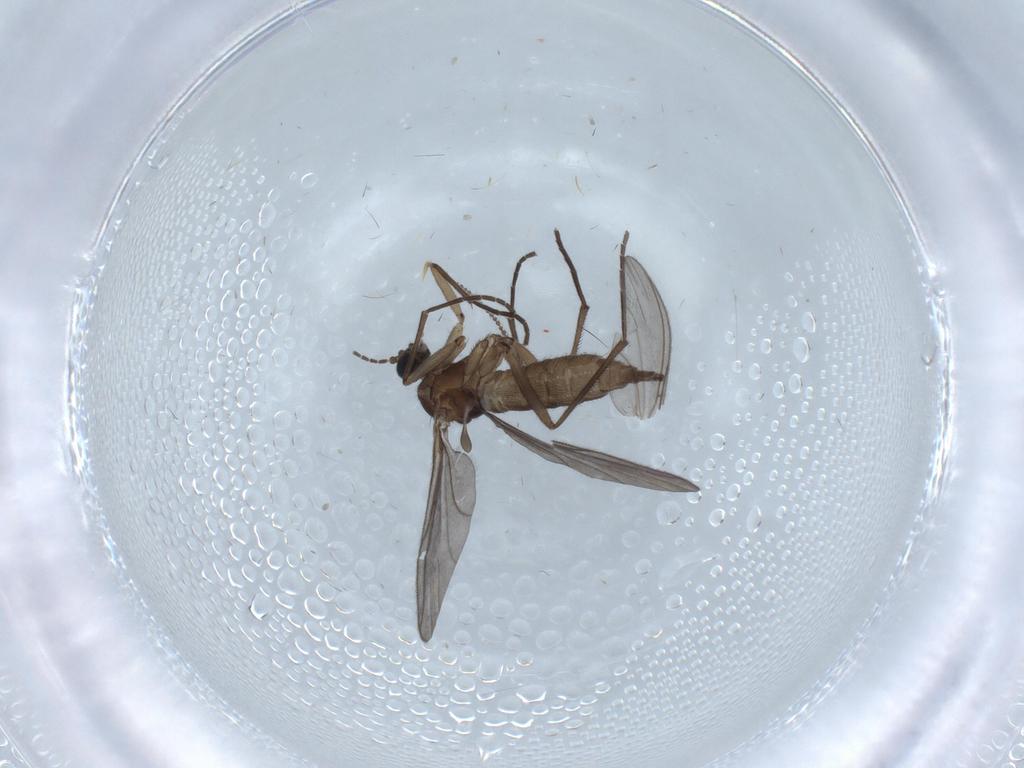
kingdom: Animalia
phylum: Arthropoda
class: Insecta
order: Diptera
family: Sciaridae
